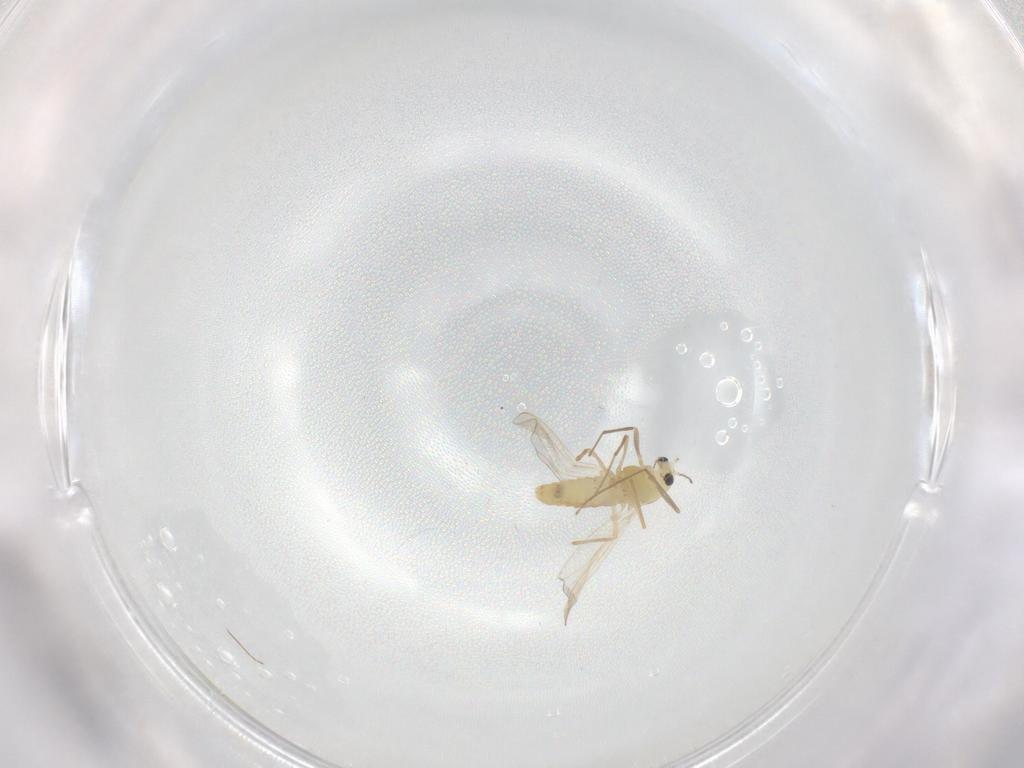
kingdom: Animalia
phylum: Arthropoda
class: Insecta
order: Diptera
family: Chironomidae
